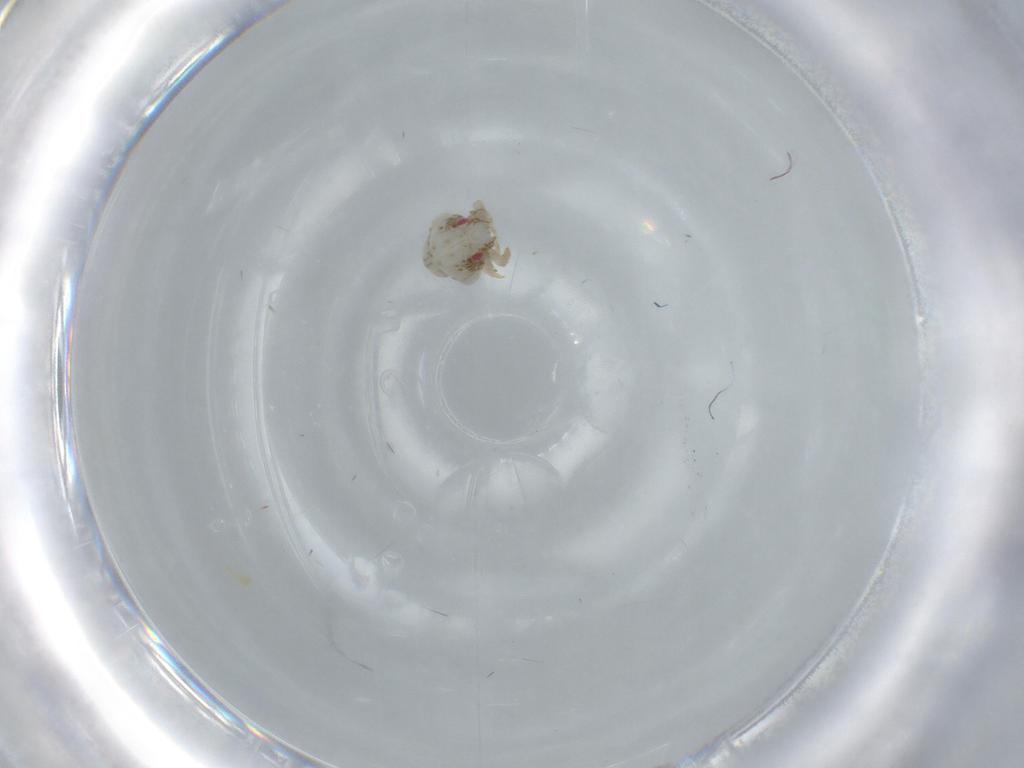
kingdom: Animalia
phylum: Arthropoda
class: Insecta
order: Hemiptera
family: Acanaloniidae
